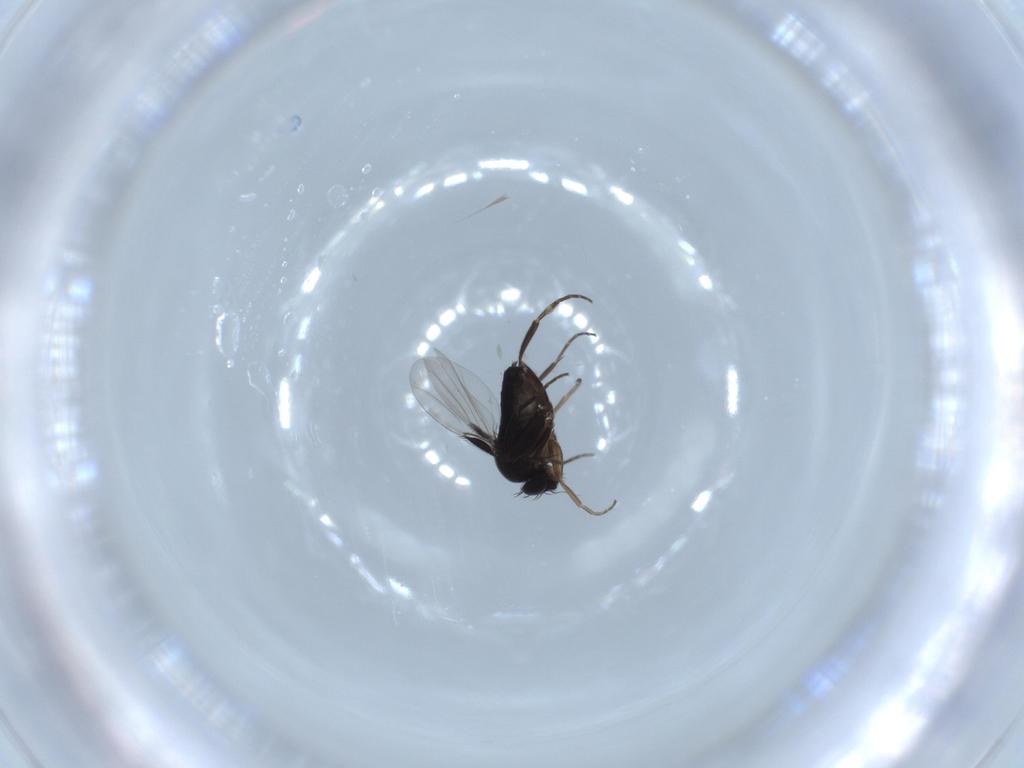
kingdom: Animalia
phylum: Arthropoda
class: Insecta
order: Diptera
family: Phoridae
